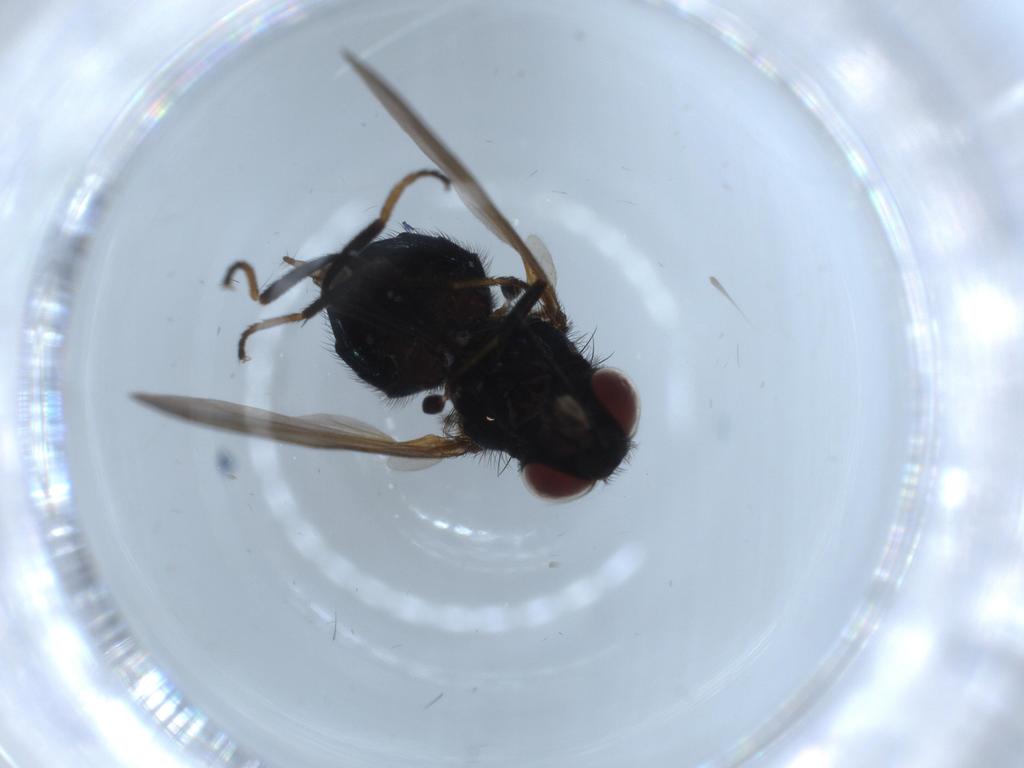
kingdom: Animalia
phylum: Arthropoda
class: Insecta
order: Diptera
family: Lonchaeidae
